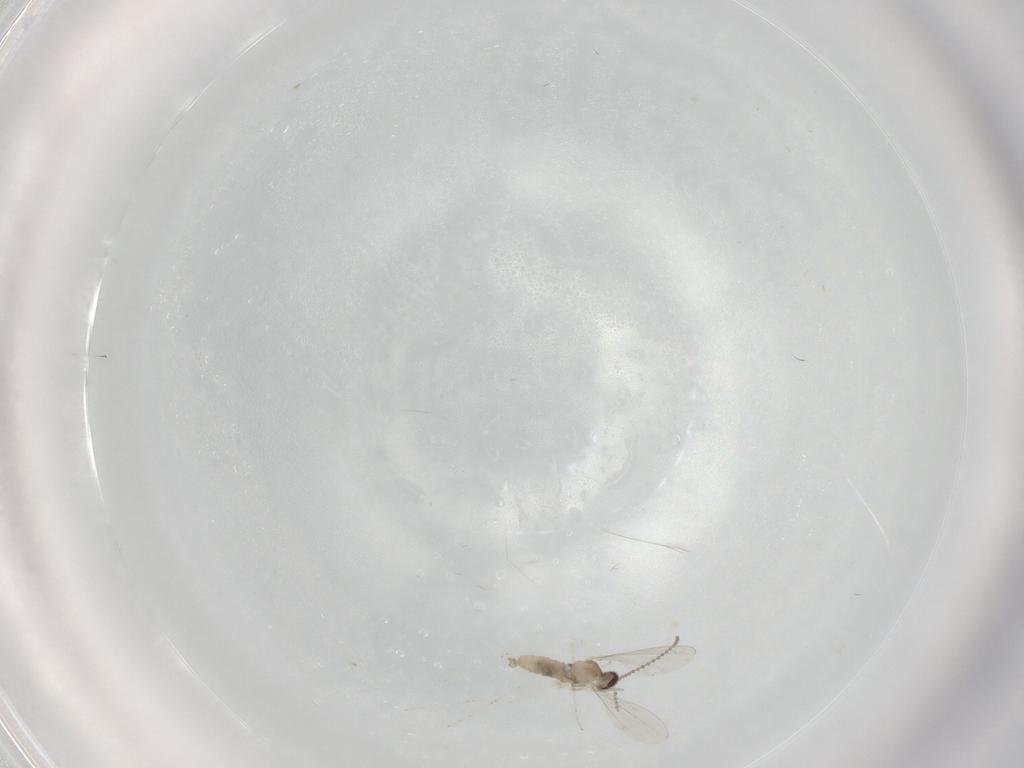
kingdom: Animalia
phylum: Arthropoda
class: Insecta
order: Diptera
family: Cecidomyiidae
